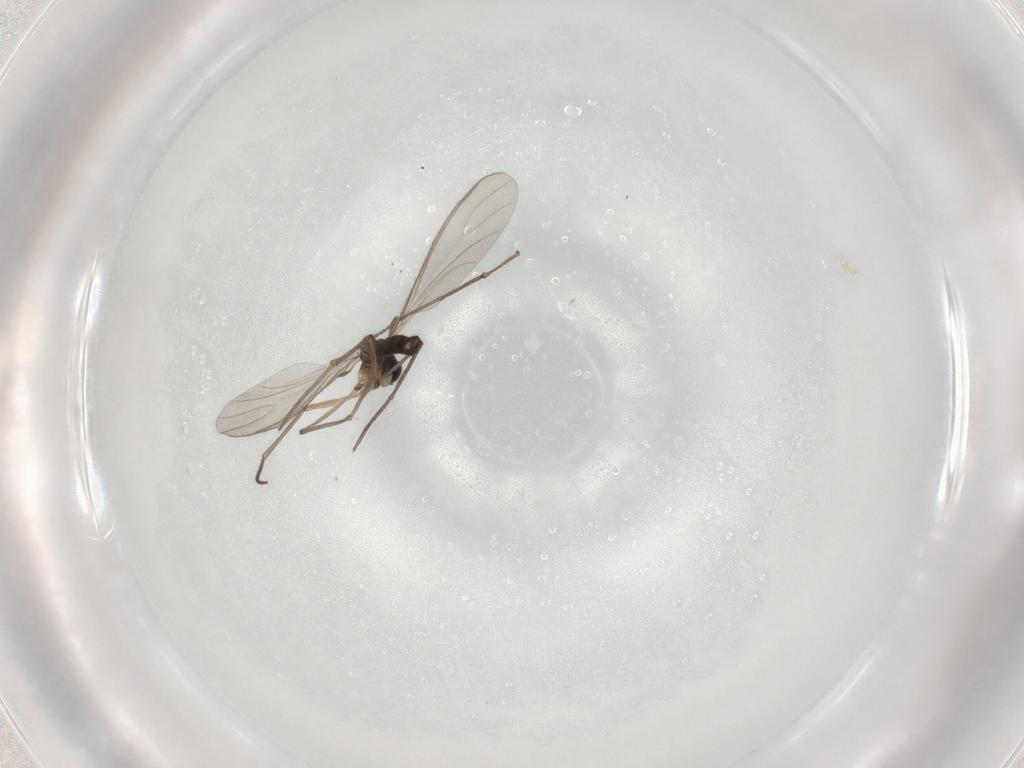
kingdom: Animalia
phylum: Arthropoda
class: Insecta
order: Diptera
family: Sciaridae
